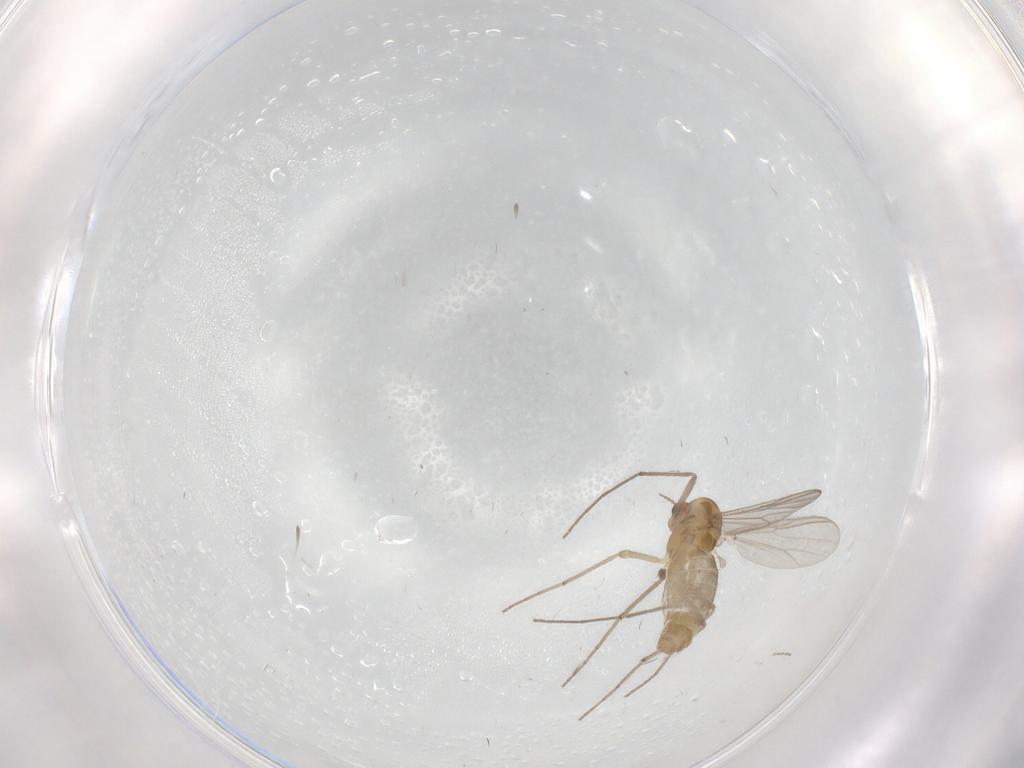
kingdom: Animalia
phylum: Arthropoda
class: Insecta
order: Diptera
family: Chironomidae
